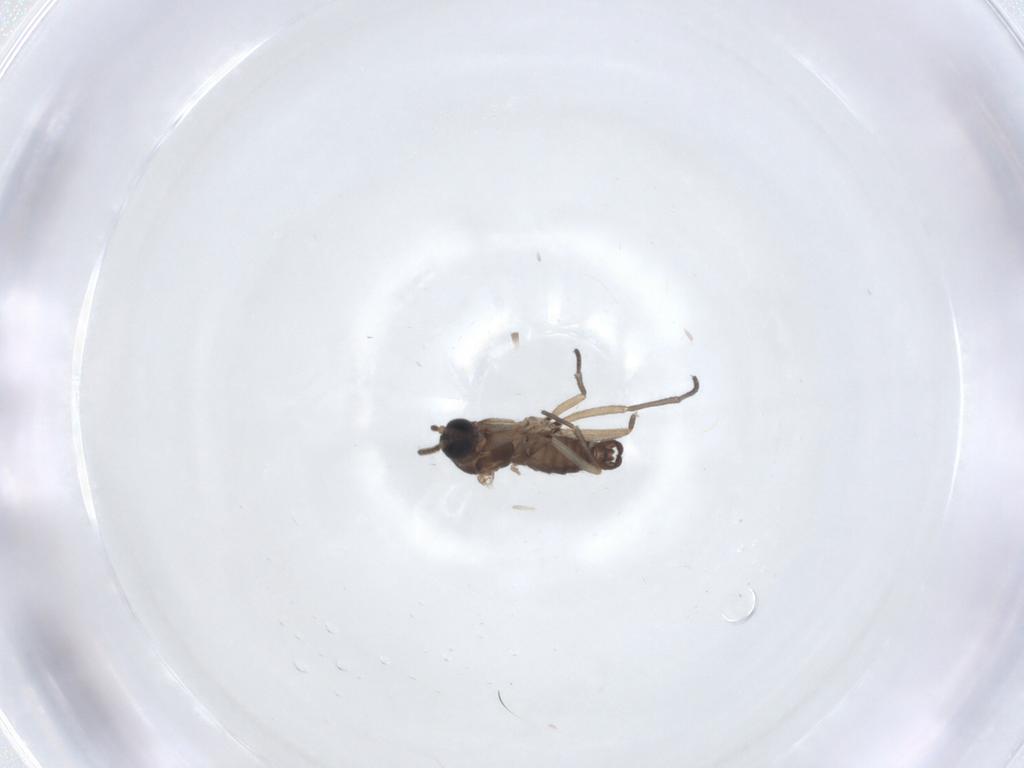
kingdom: Animalia
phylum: Arthropoda
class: Insecta
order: Diptera
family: Sciaridae
